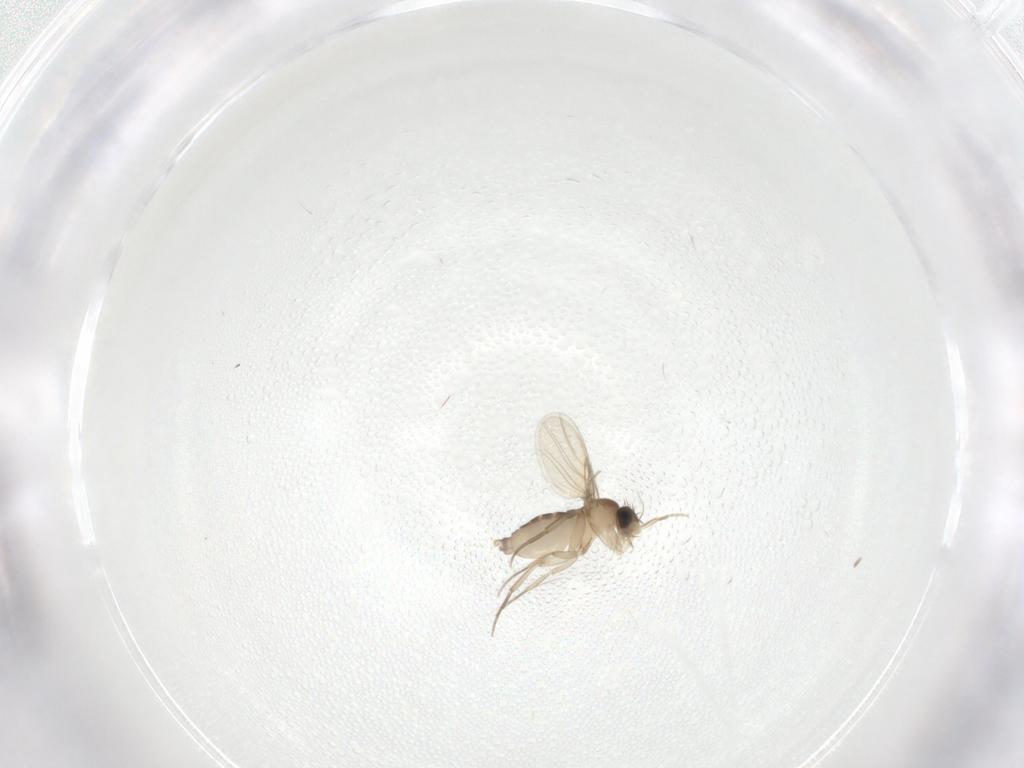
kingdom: Animalia
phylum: Arthropoda
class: Insecta
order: Diptera
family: Phoridae
